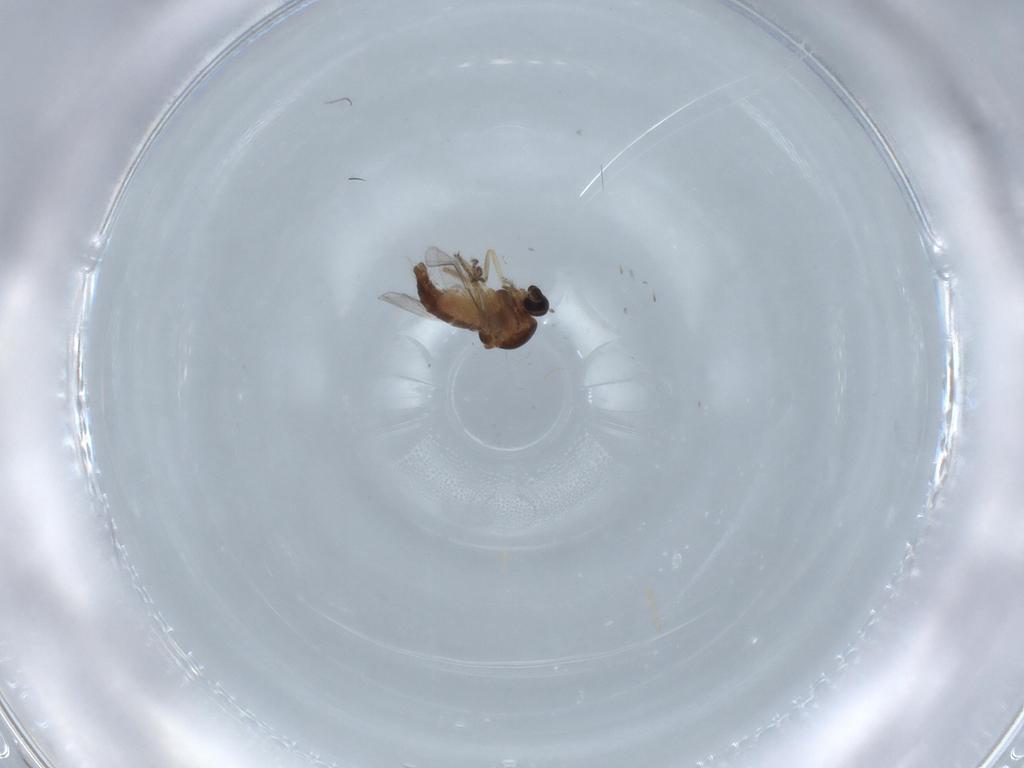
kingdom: Animalia
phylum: Arthropoda
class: Insecta
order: Diptera
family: Ceratopogonidae
